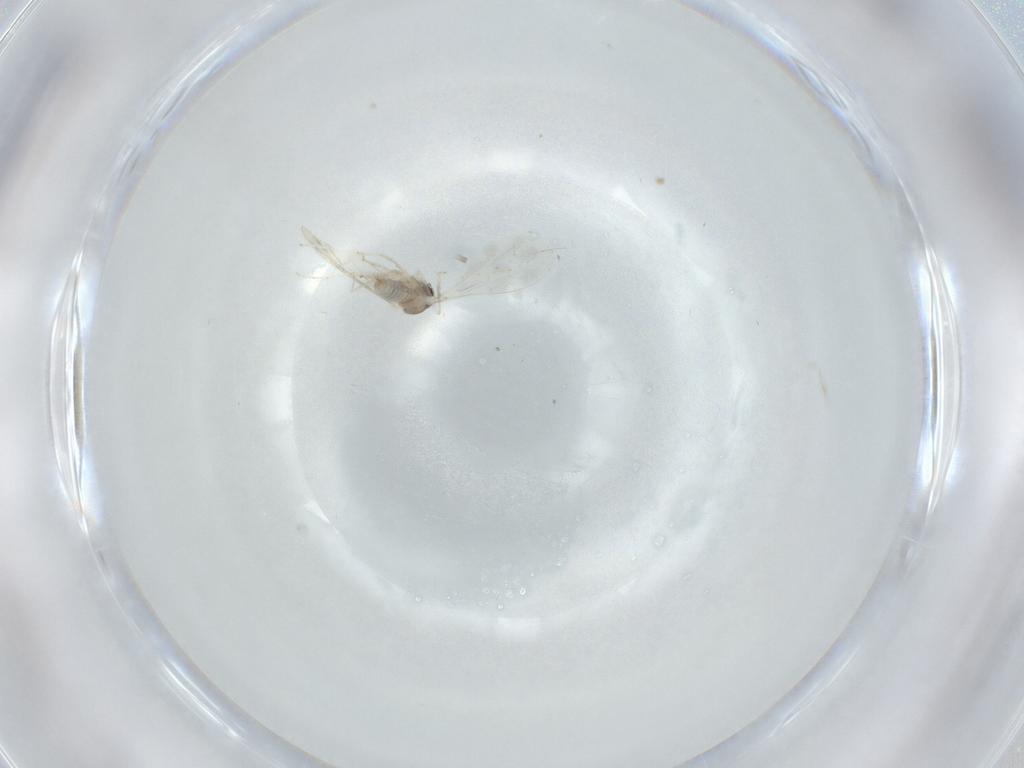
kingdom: Animalia
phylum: Arthropoda
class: Insecta
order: Diptera
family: Cecidomyiidae
